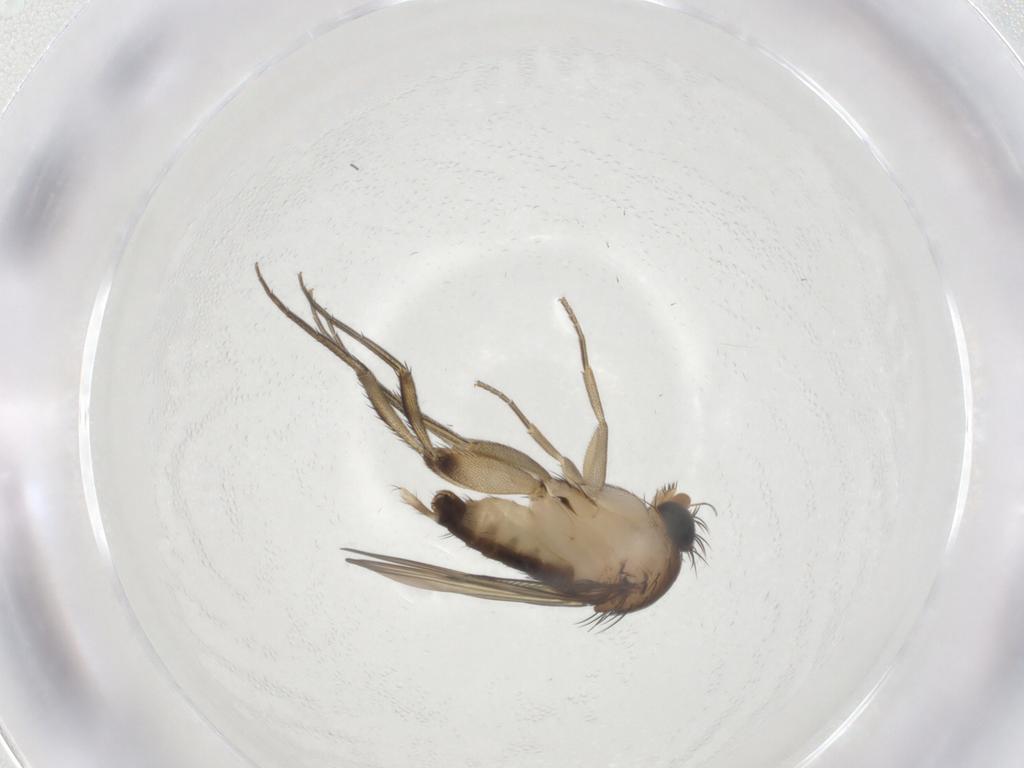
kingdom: Animalia
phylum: Arthropoda
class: Insecta
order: Diptera
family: Phoridae
